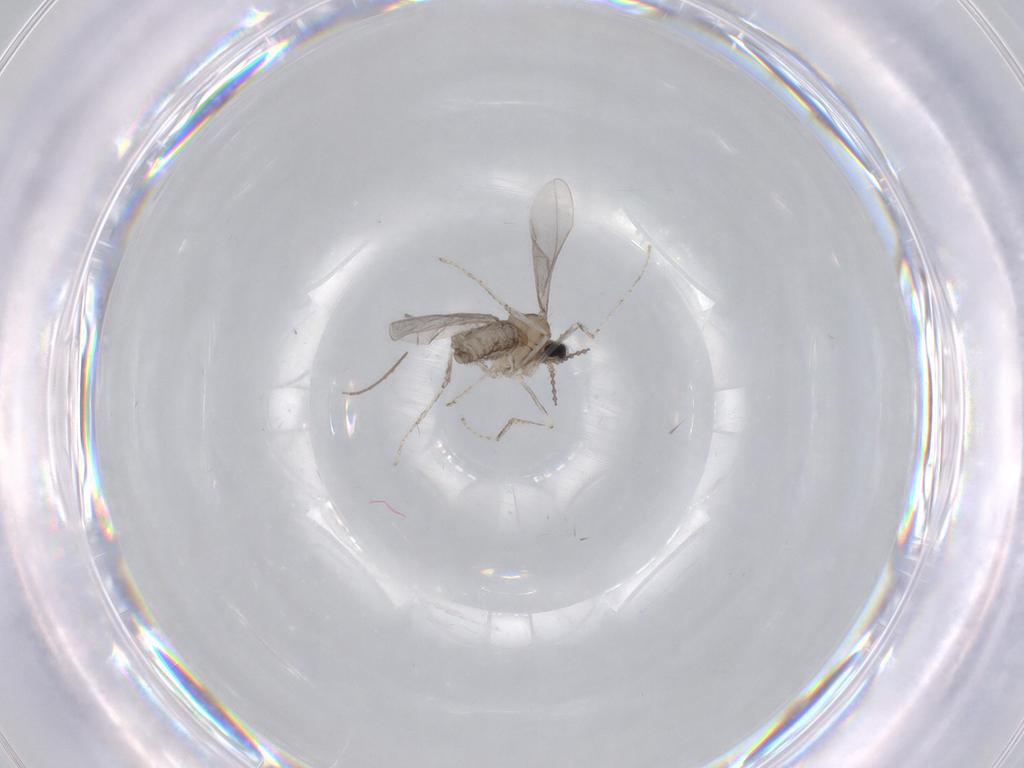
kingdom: Animalia
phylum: Arthropoda
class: Insecta
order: Diptera
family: Cecidomyiidae
